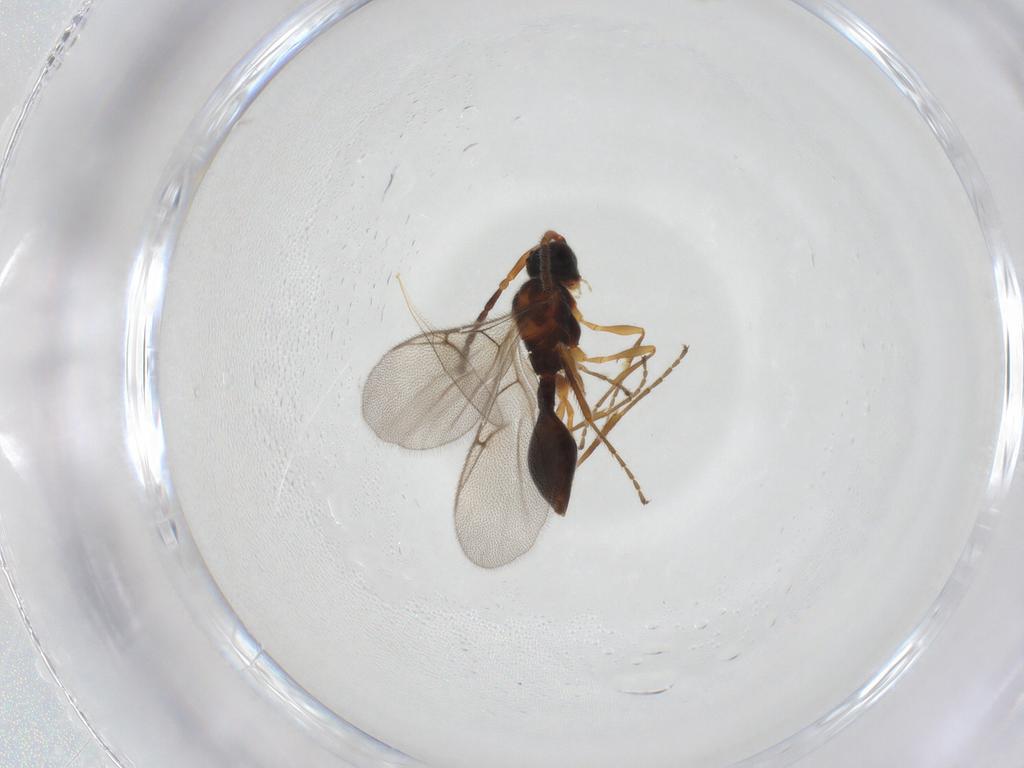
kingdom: Animalia
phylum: Arthropoda
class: Insecta
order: Hymenoptera
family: Diapriidae
